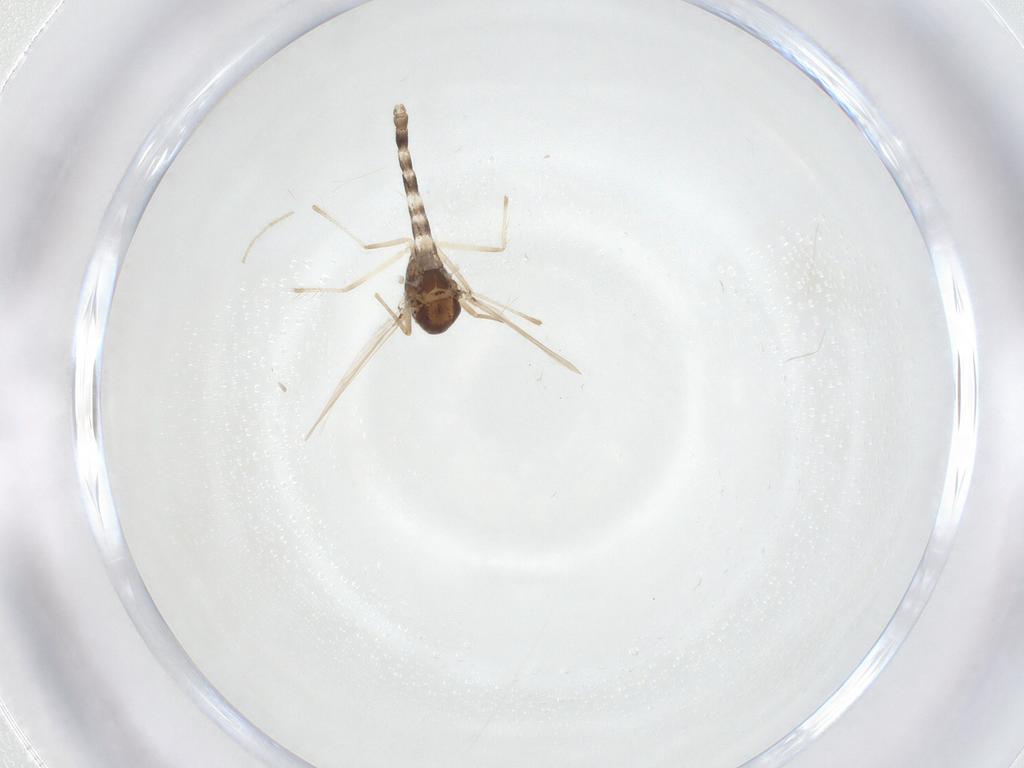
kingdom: Animalia
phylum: Arthropoda
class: Insecta
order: Diptera
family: Chironomidae
